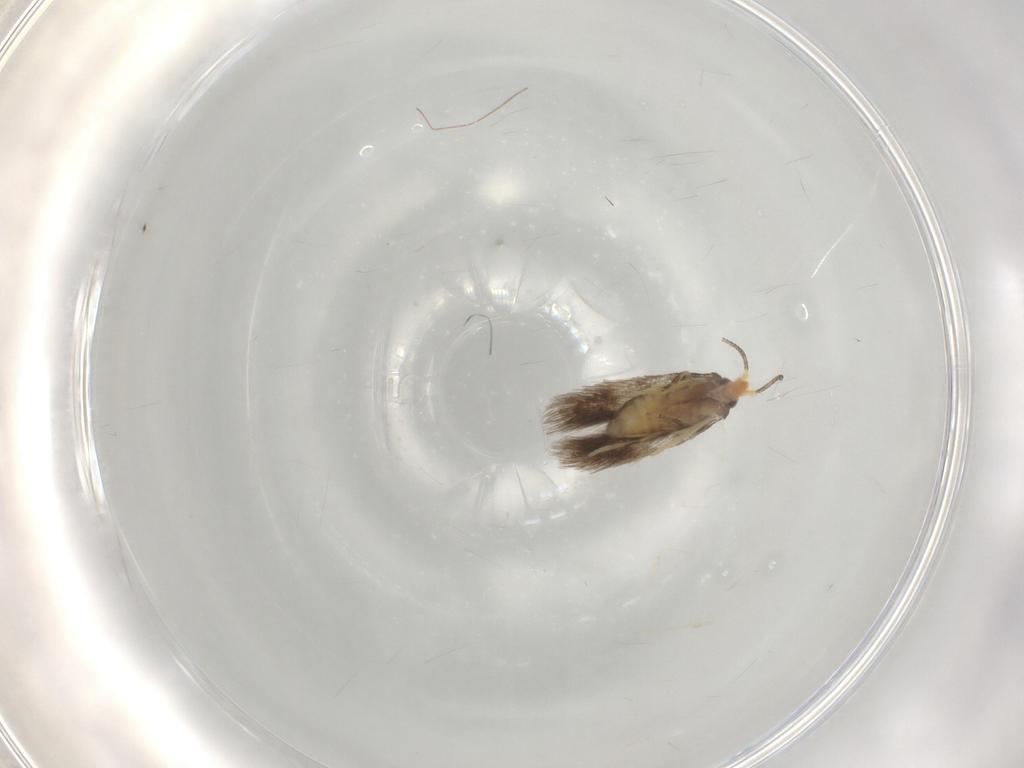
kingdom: Animalia
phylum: Arthropoda
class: Insecta
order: Lepidoptera
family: Nepticulidae
